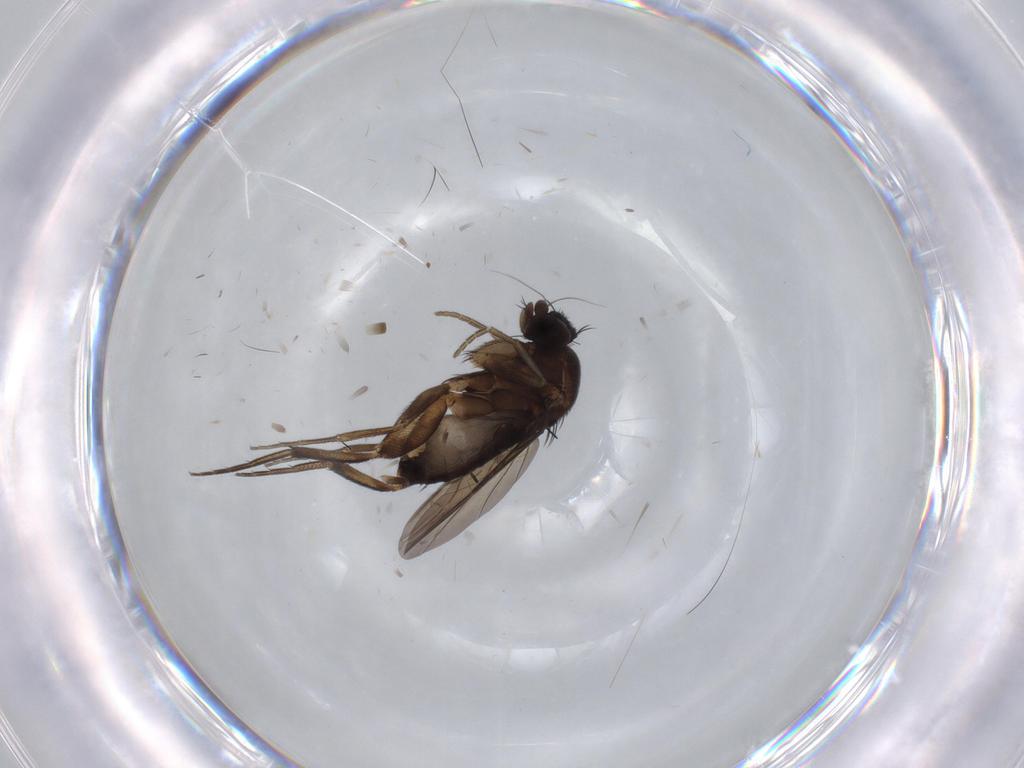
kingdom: Animalia
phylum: Arthropoda
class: Insecta
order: Diptera
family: Phoridae
